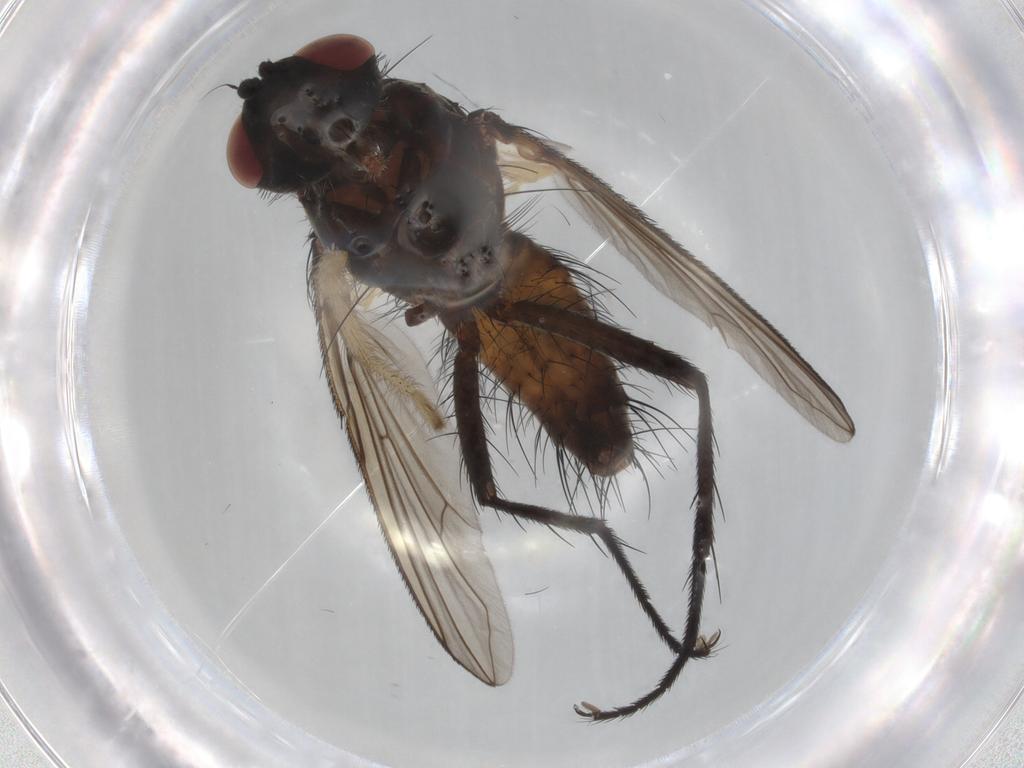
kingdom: Animalia
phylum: Arthropoda
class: Insecta
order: Diptera
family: Muscidae
